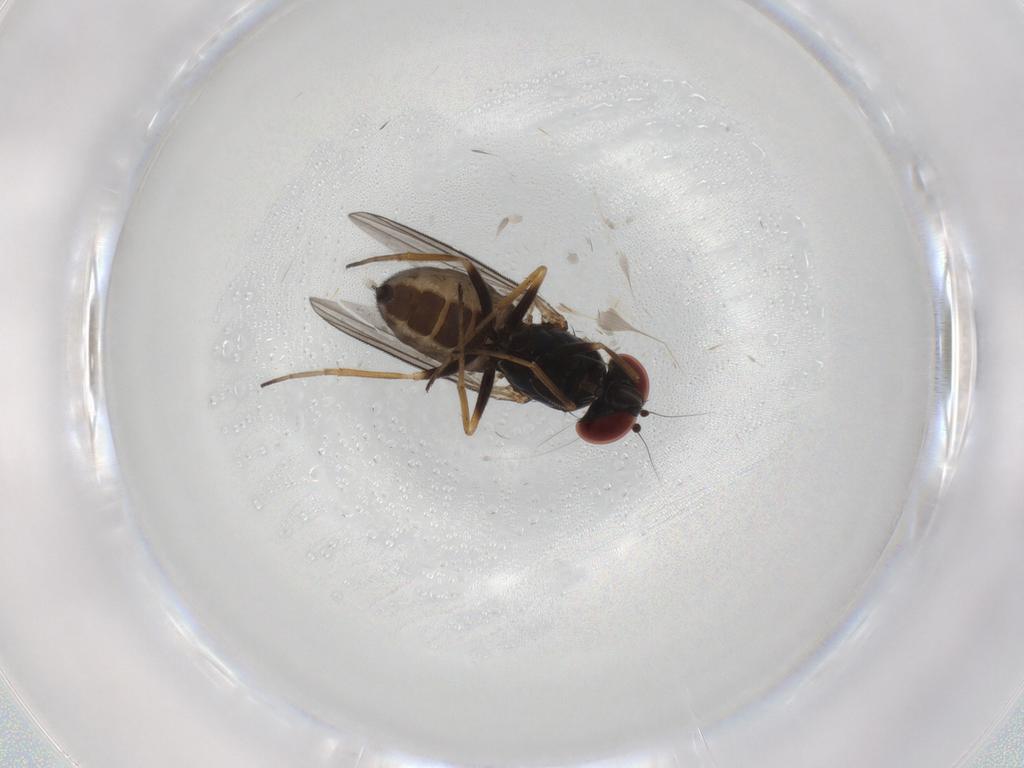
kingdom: Animalia
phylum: Arthropoda
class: Insecta
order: Diptera
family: Dolichopodidae
